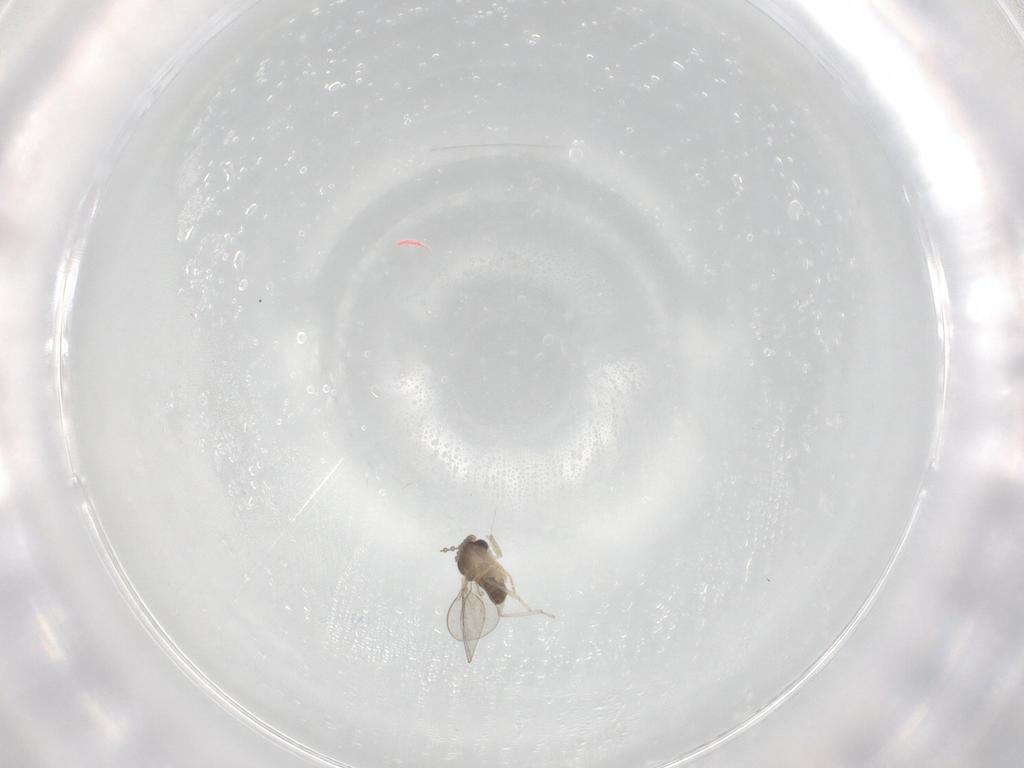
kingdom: Animalia
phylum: Arthropoda
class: Insecta
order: Diptera
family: Cecidomyiidae
